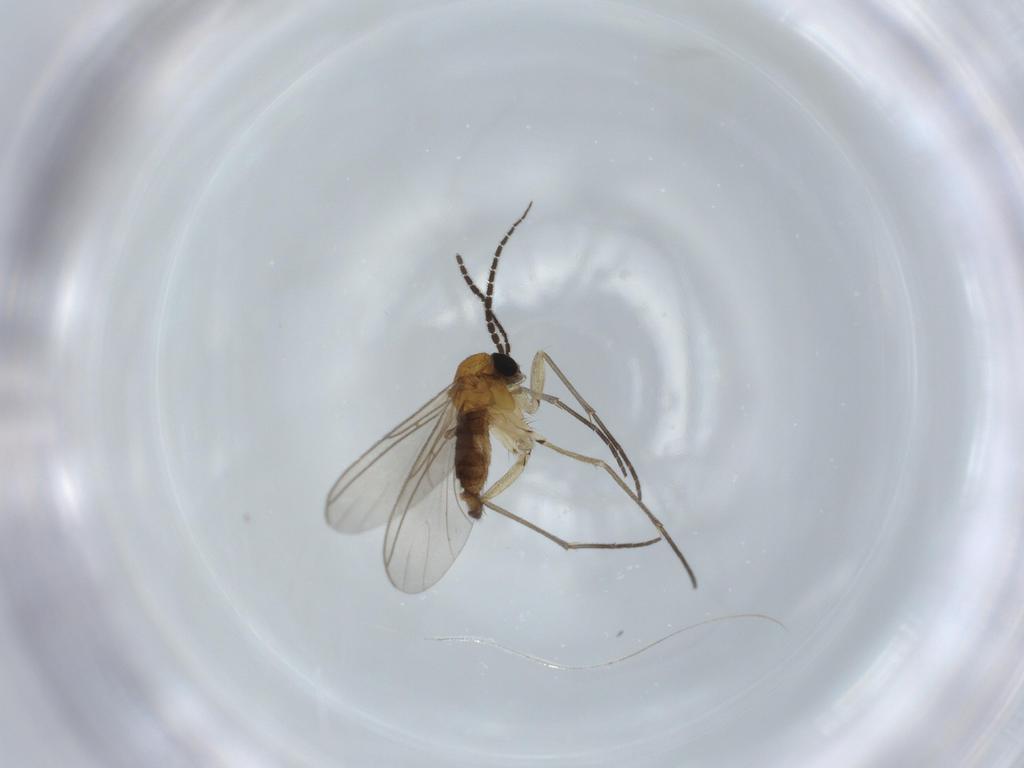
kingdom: Animalia
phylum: Arthropoda
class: Insecta
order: Diptera
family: Sciaridae
